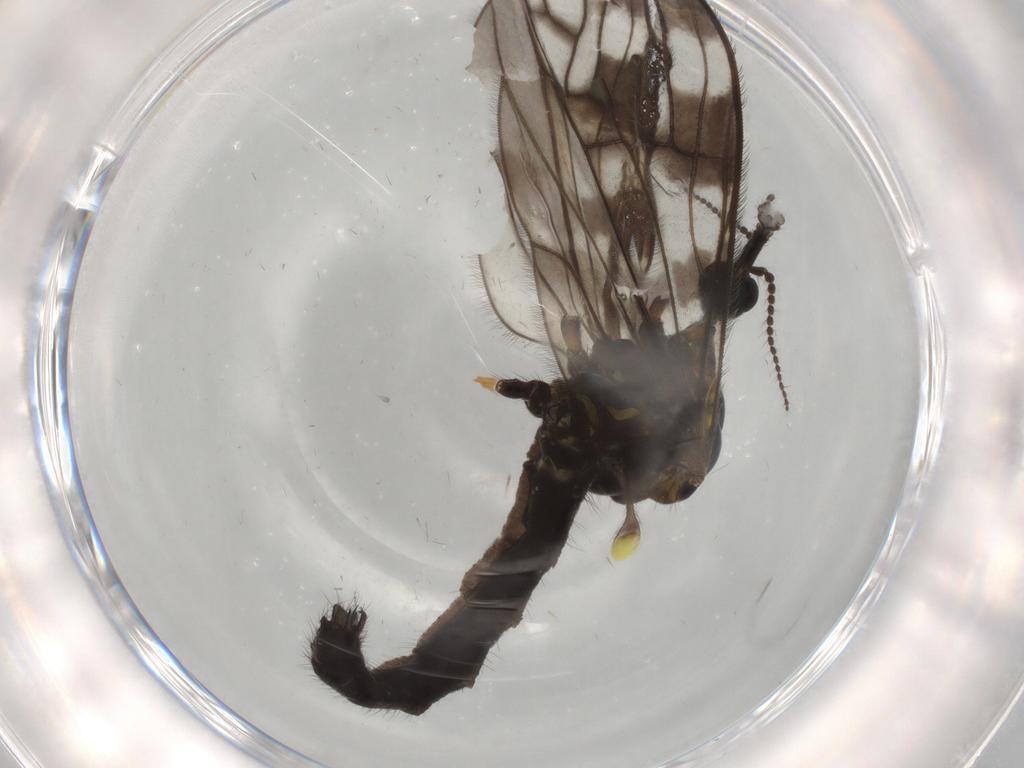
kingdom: Animalia
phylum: Arthropoda
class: Insecta
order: Diptera
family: Limoniidae
